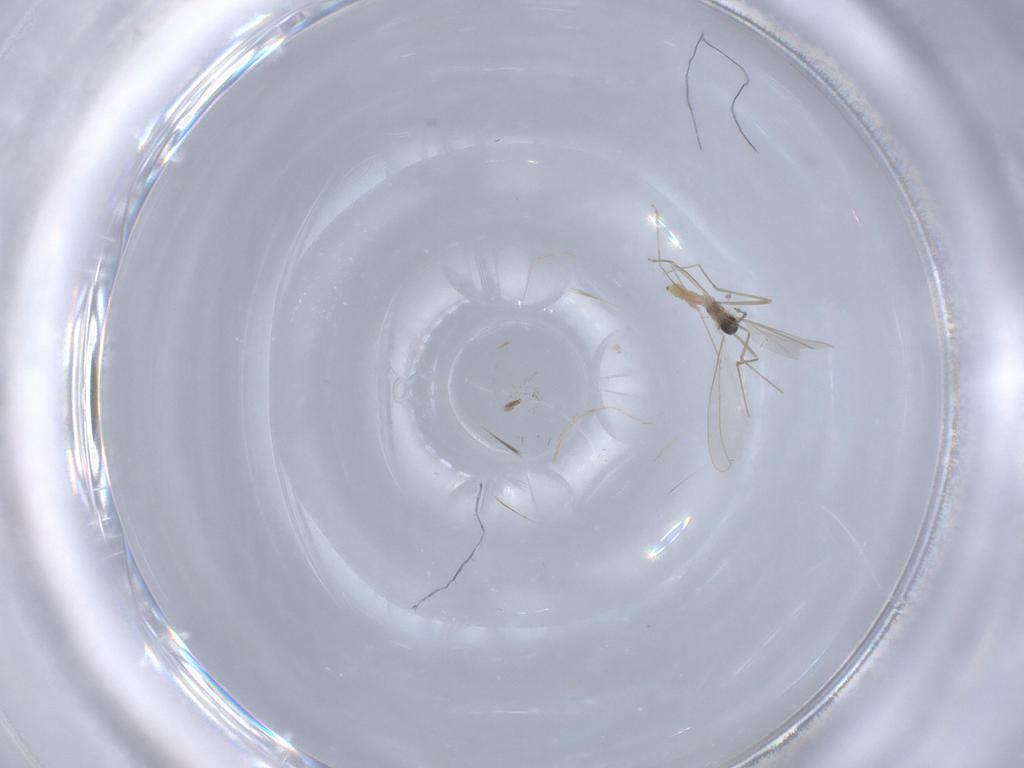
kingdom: Animalia
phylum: Arthropoda
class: Insecta
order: Diptera
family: Cecidomyiidae
